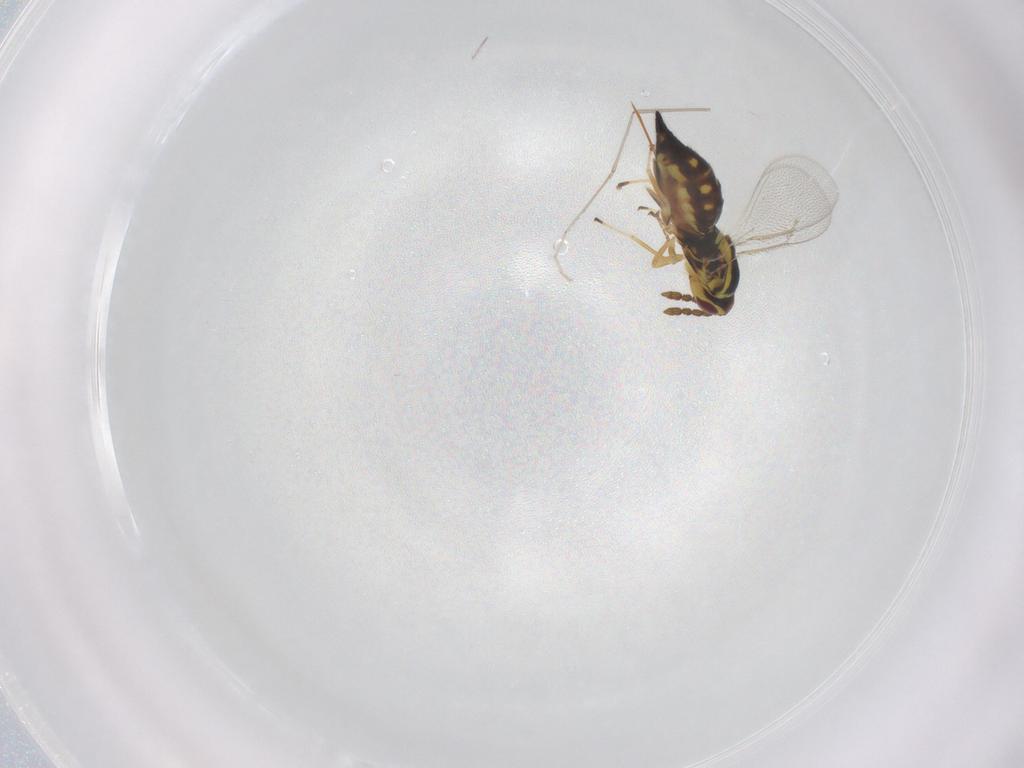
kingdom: Animalia
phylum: Arthropoda
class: Insecta
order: Hymenoptera
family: Eulophidae
